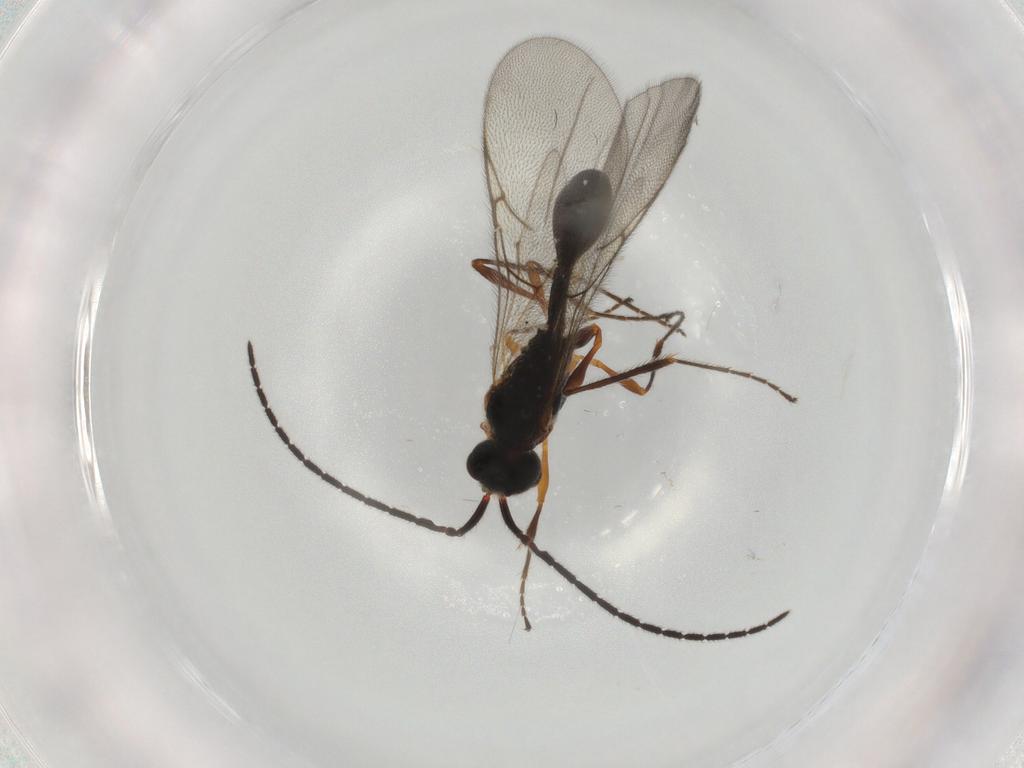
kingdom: Animalia
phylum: Arthropoda
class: Insecta
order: Hymenoptera
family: Diapriidae
